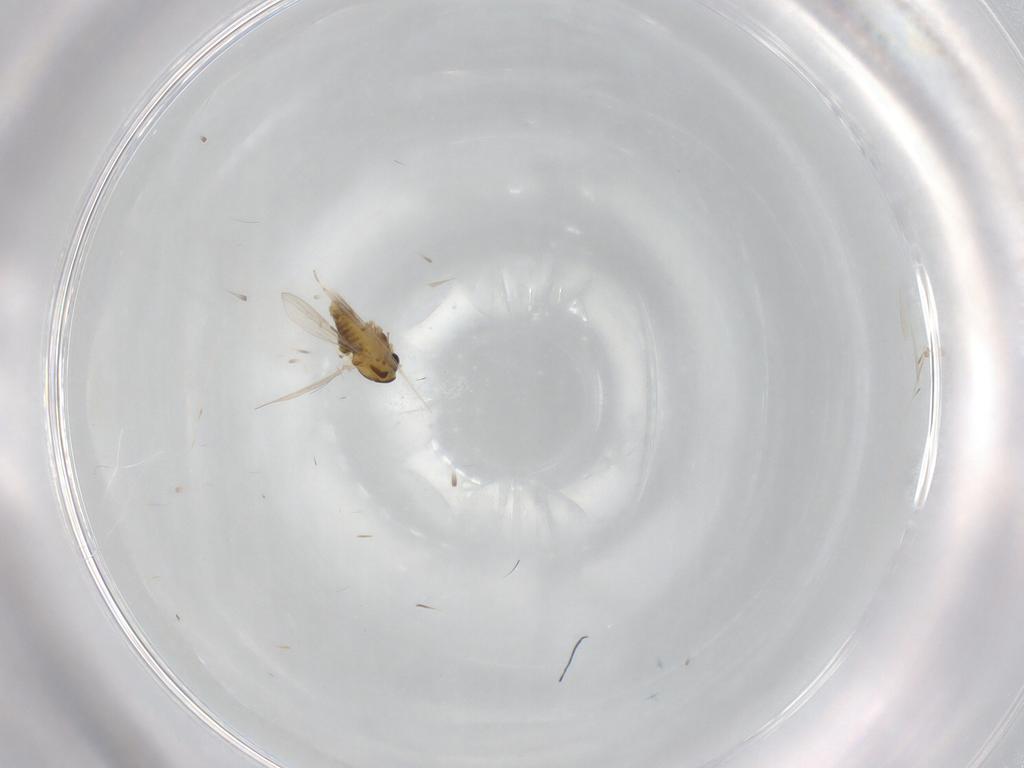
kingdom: Animalia
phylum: Arthropoda
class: Insecta
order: Diptera
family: Chironomidae
